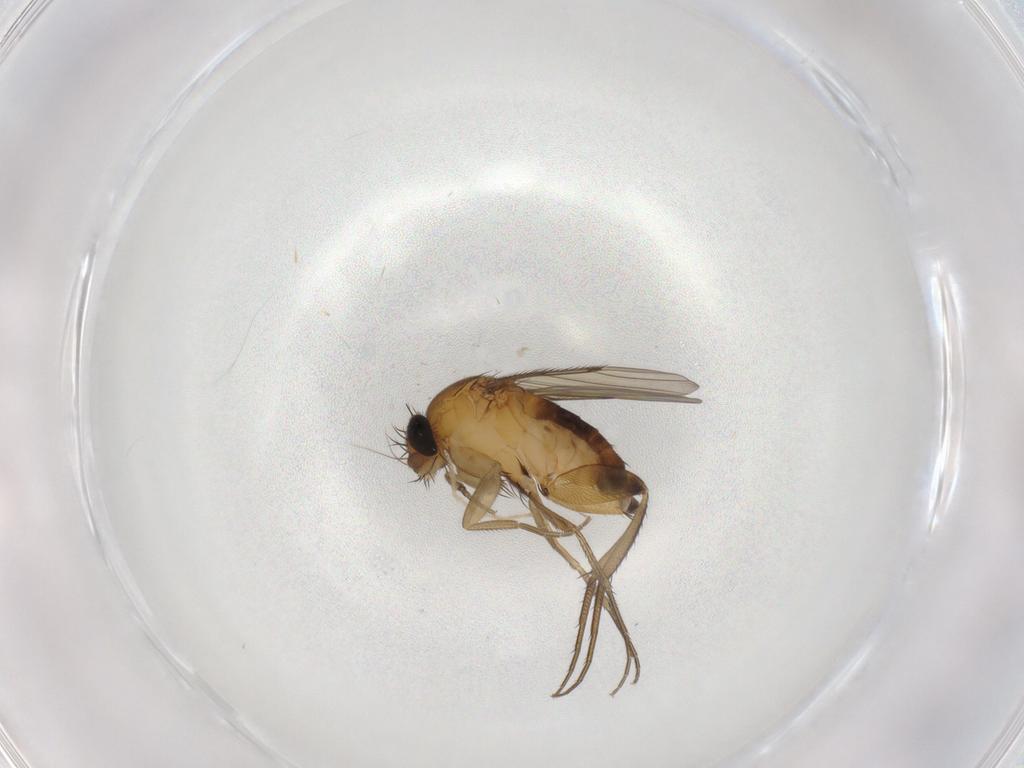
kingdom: Animalia
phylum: Arthropoda
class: Insecta
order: Diptera
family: Phoridae
